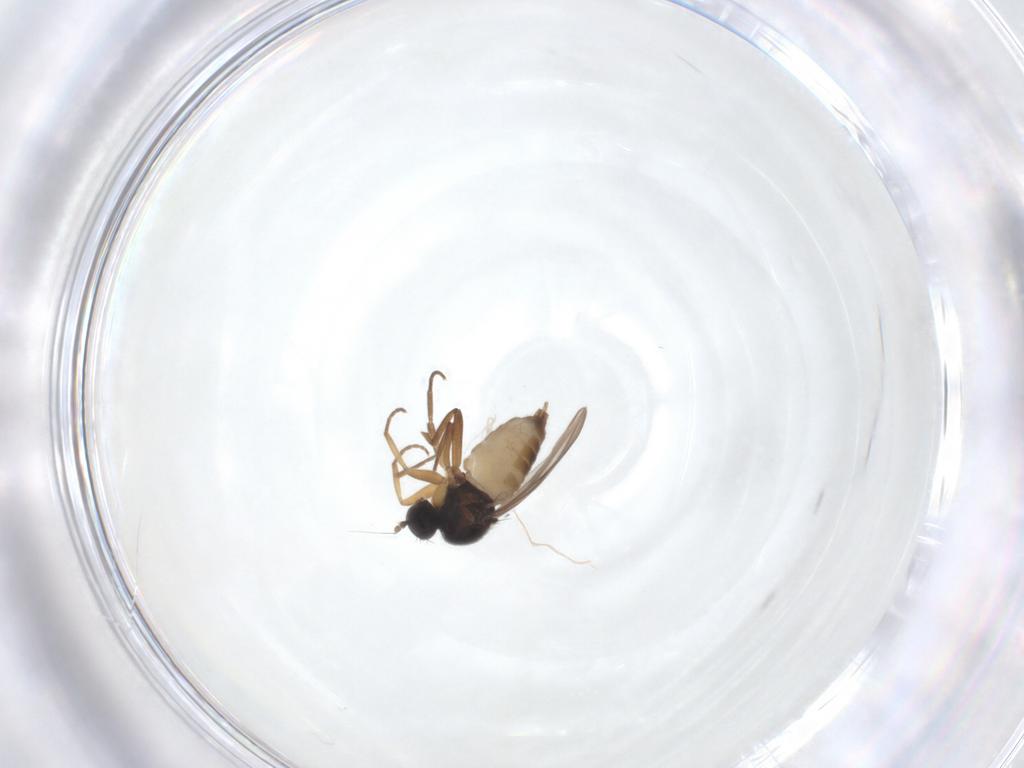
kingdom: Animalia
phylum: Arthropoda
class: Insecta
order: Diptera
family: Hybotidae
